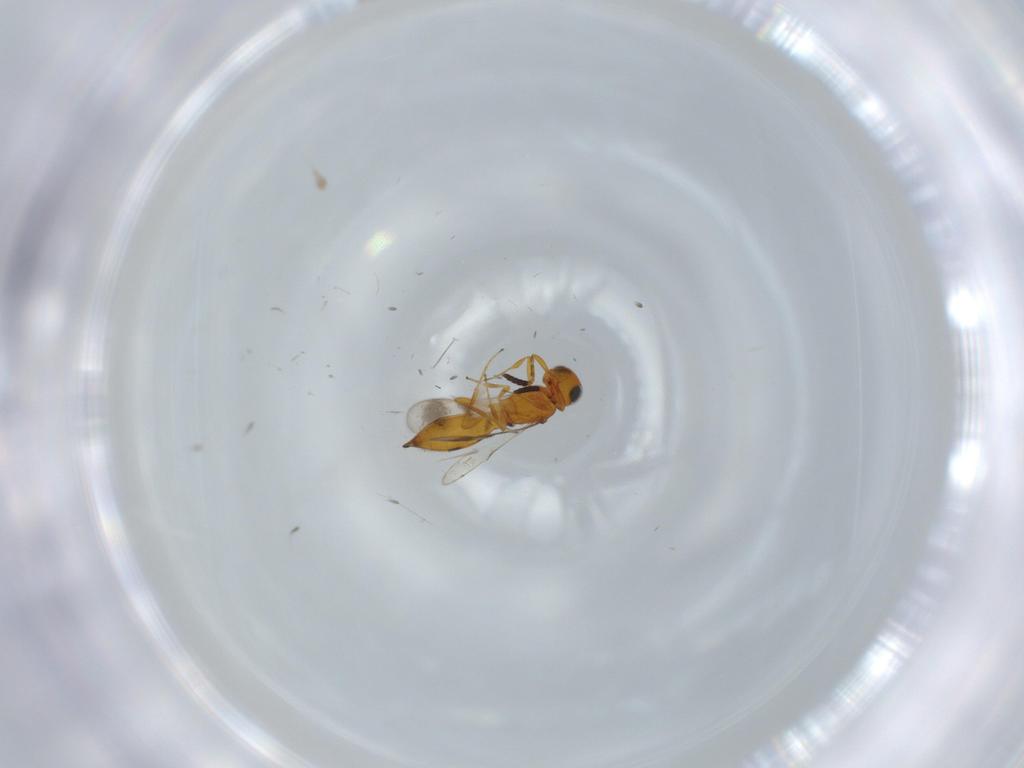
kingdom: Animalia
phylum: Arthropoda
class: Insecta
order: Hymenoptera
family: Scelionidae
